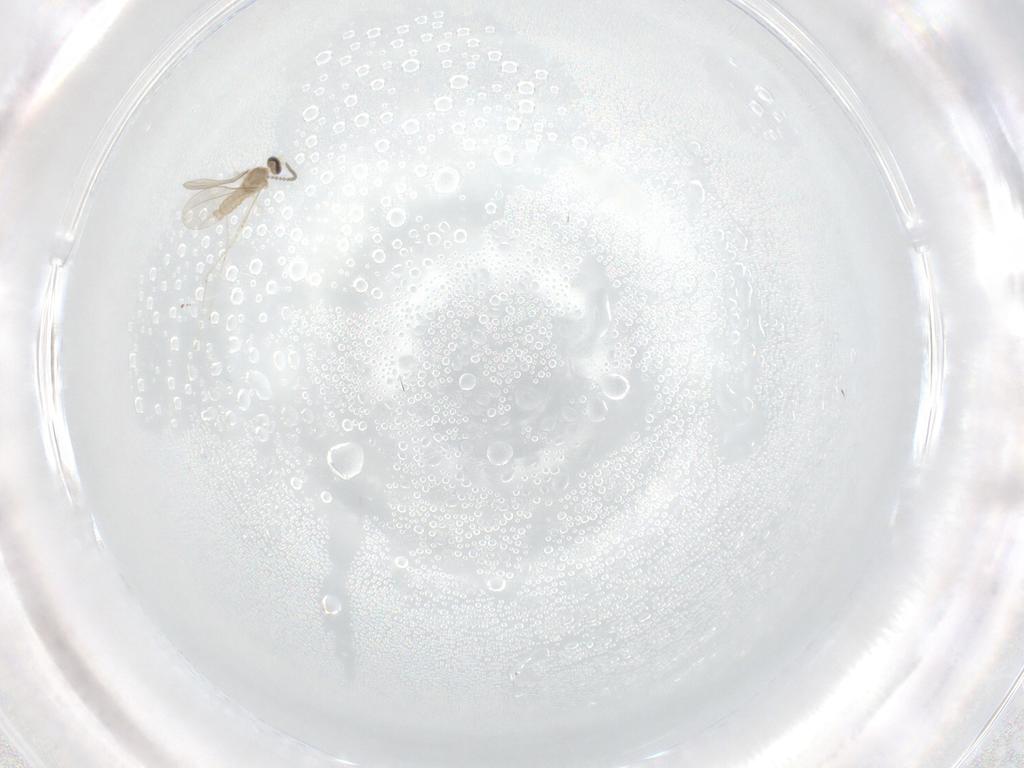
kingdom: Animalia
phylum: Arthropoda
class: Insecta
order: Diptera
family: Cecidomyiidae
